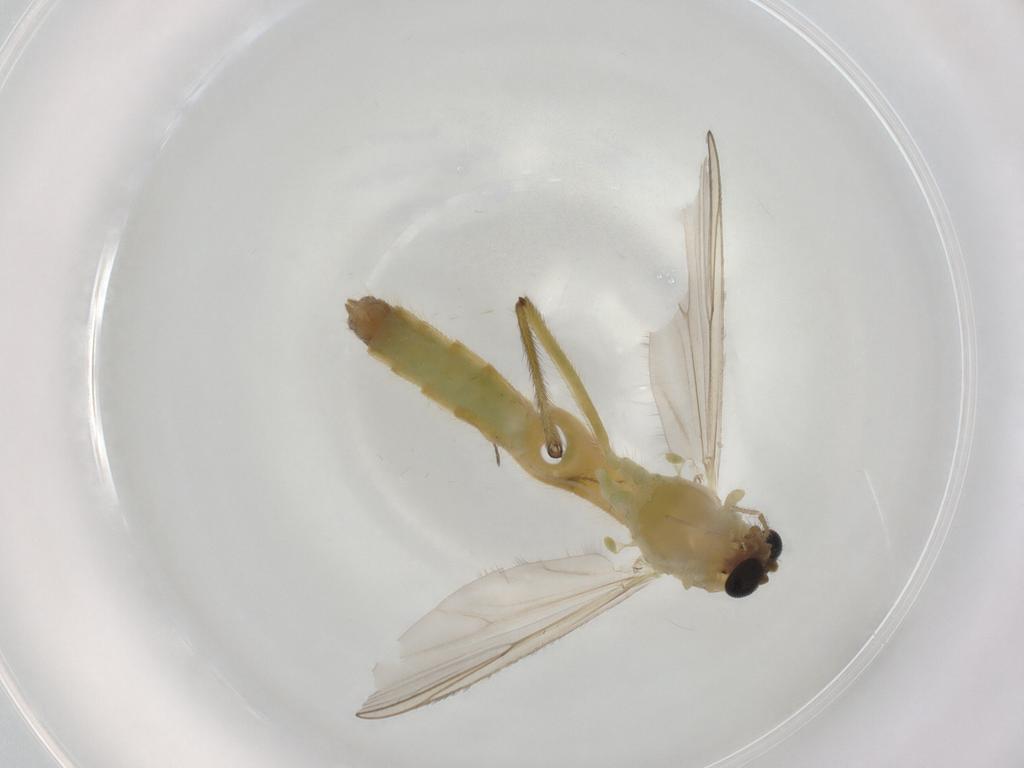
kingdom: Animalia
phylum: Arthropoda
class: Insecta
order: Diptera
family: Chironomidae
